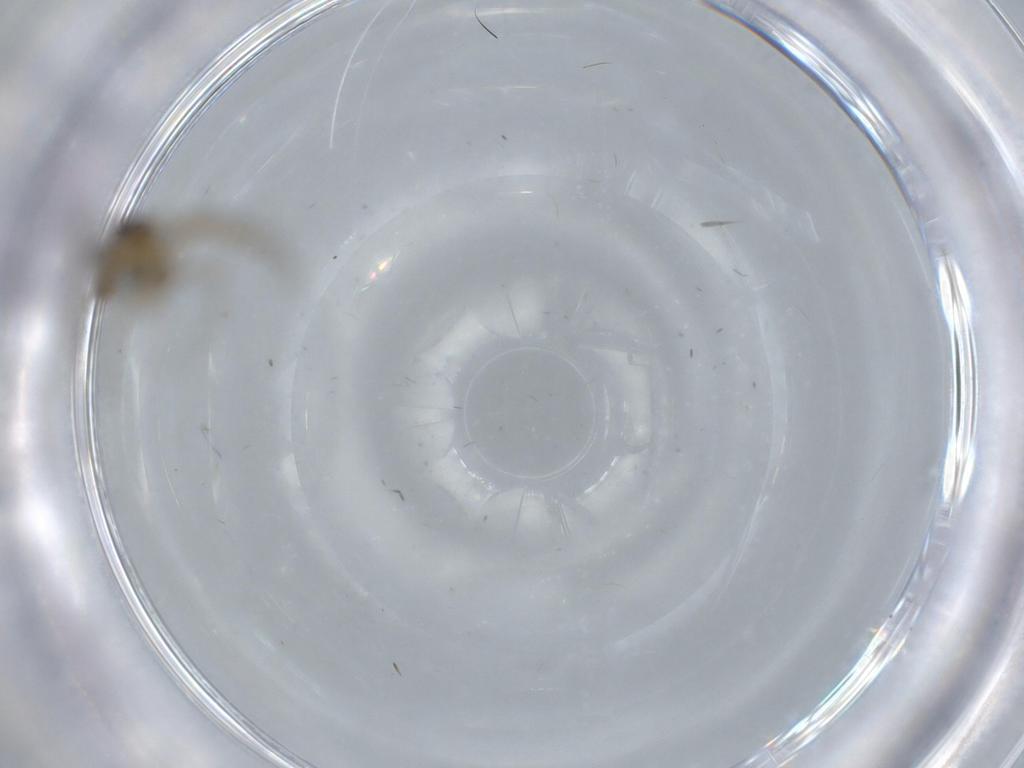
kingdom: Animalia
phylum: Arthropoda
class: Insecta
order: Diptera
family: Chironomidae
